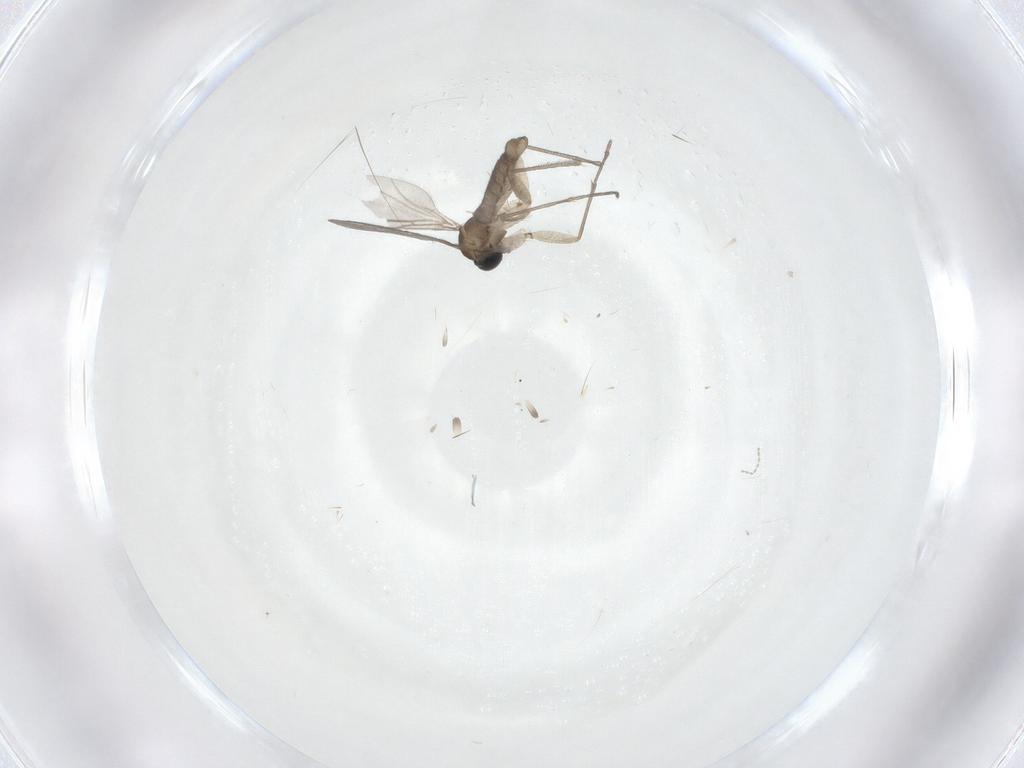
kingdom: Animalia
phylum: Arthropoda
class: Insecta
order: Diptera
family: Sciaridae
